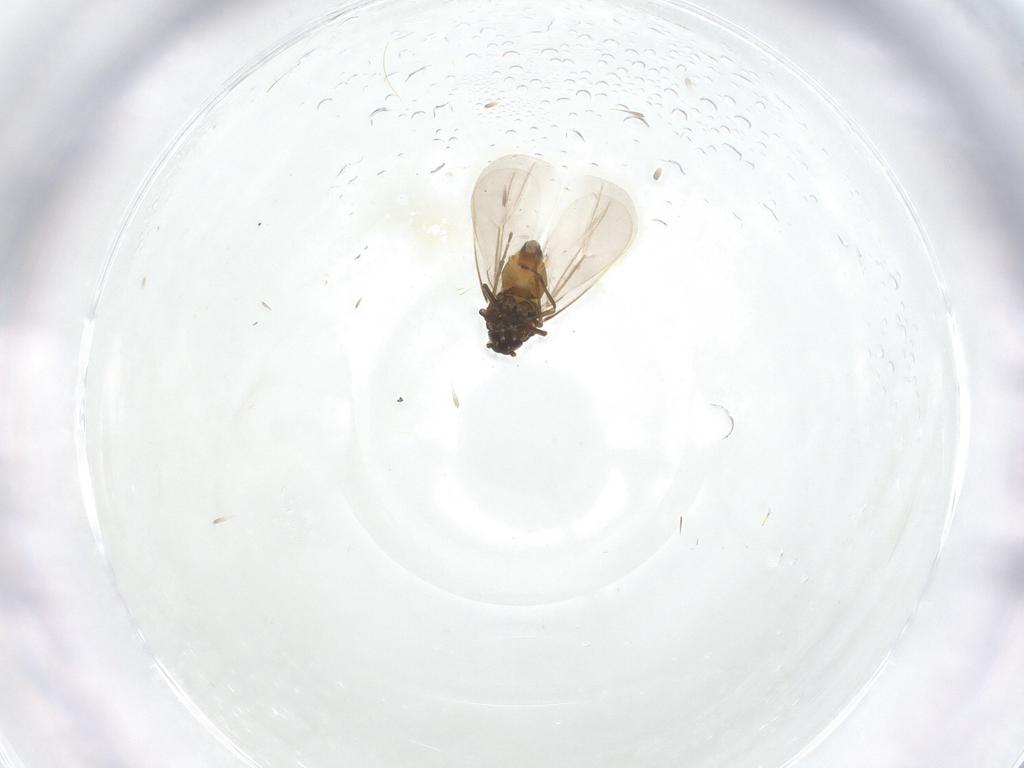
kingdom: Animalia
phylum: Arthropoda
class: Insecta
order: Hemiptera
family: Aleyrodidae
